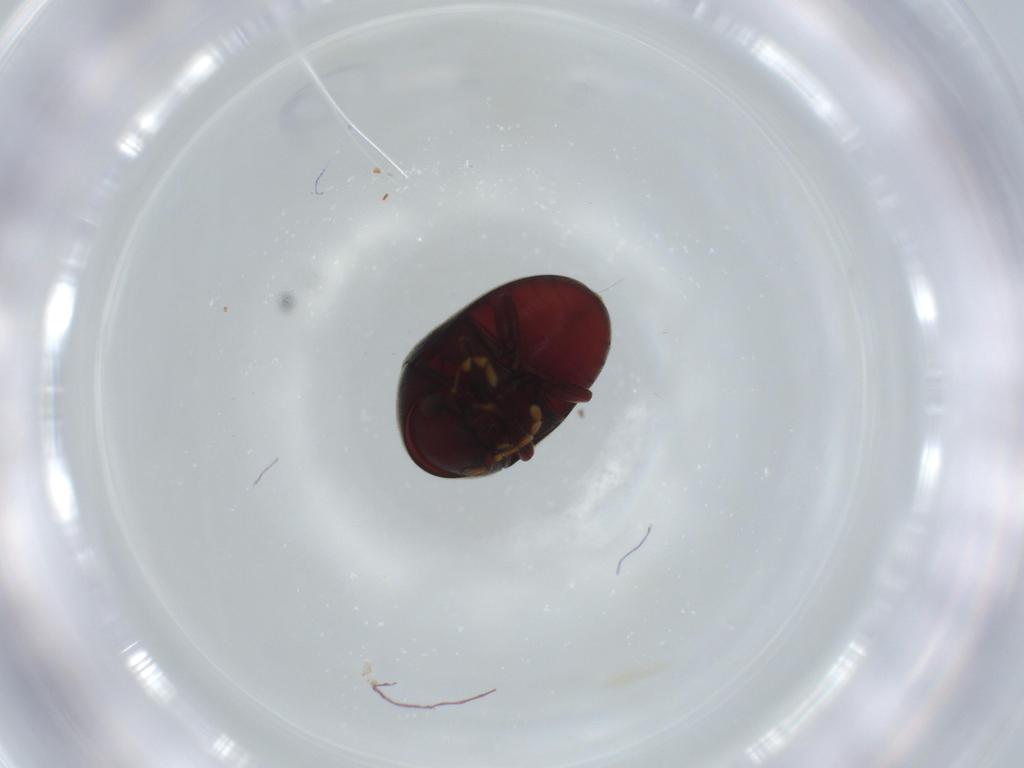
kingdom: Animalia
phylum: Arthropoda
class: Insecta
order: Coleoptera
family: Ptinidae
